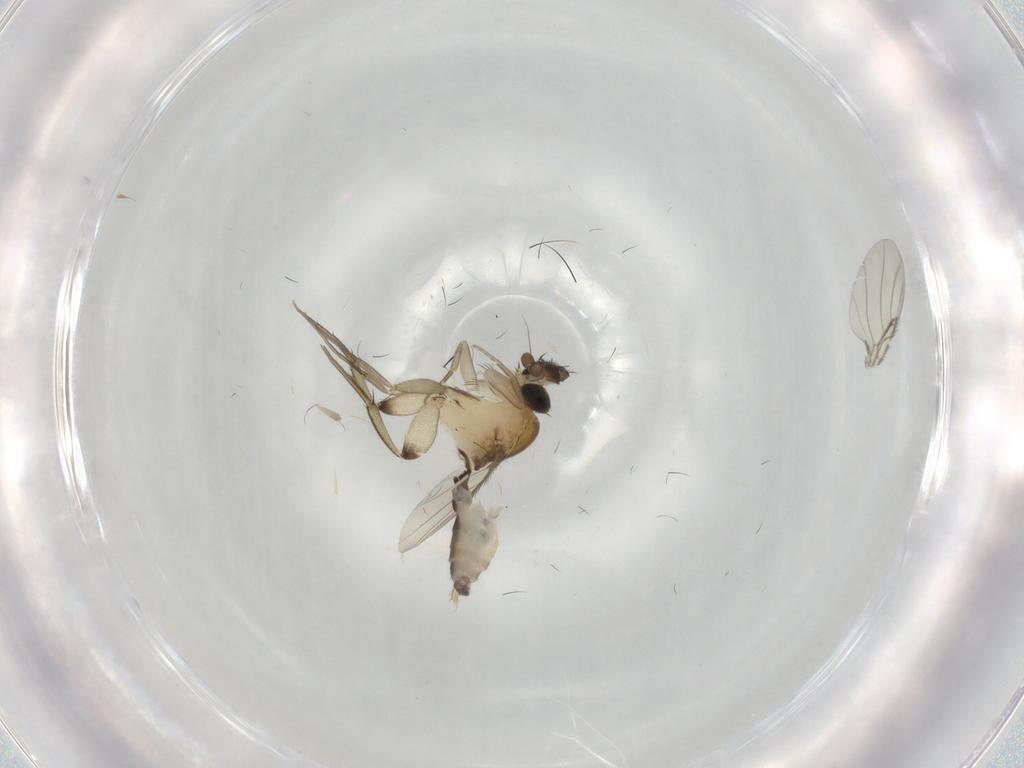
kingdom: Animalia
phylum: Arthropoda
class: Insecta
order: Diptera
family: Phoridae
